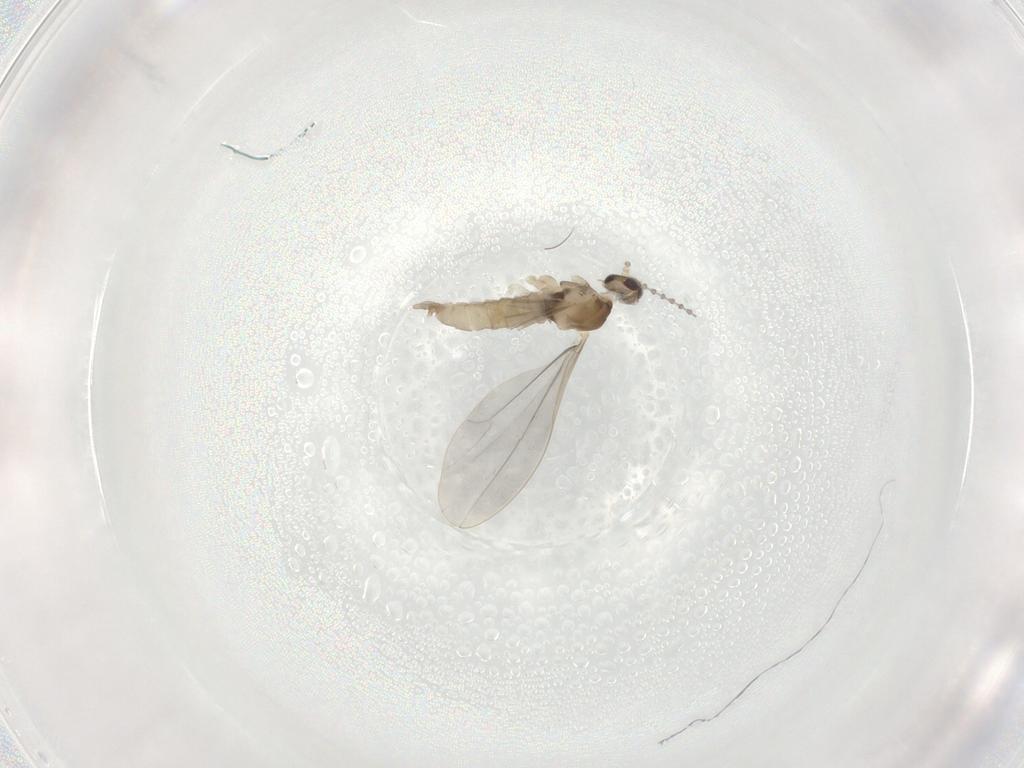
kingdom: Animalia
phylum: Arthropoda
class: Insecta
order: Diptera
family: Cecidomyiidae
